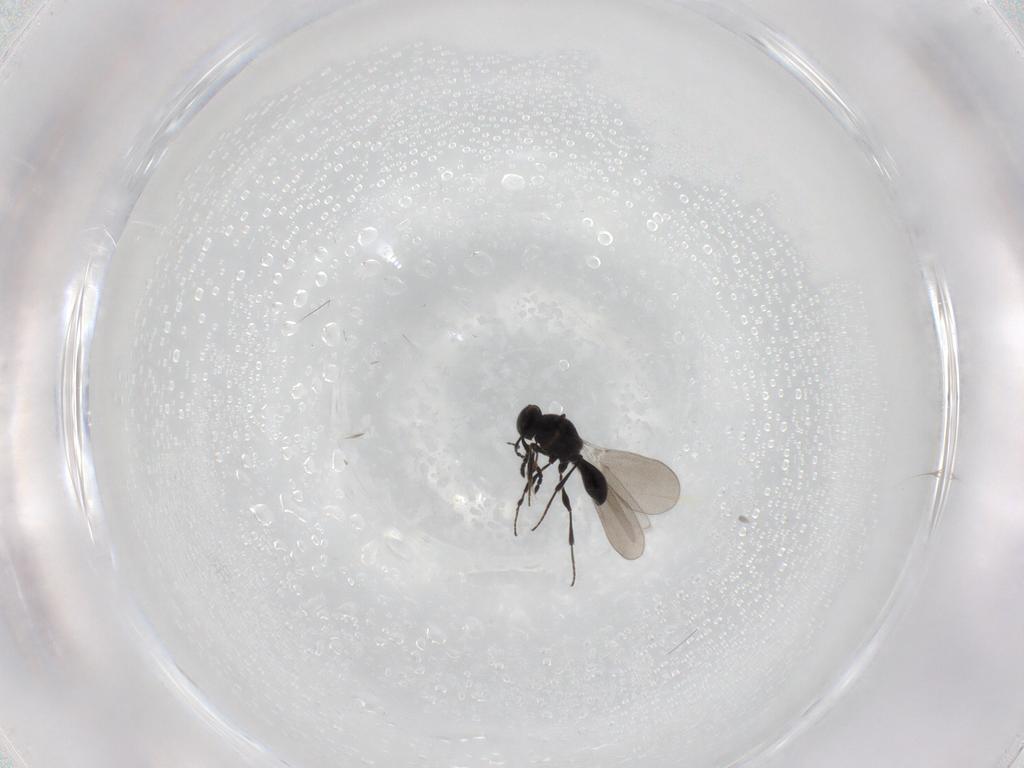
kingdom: Animalia
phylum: Arthropoda
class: Insecta
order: Hymenoptera
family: Platygastridae
